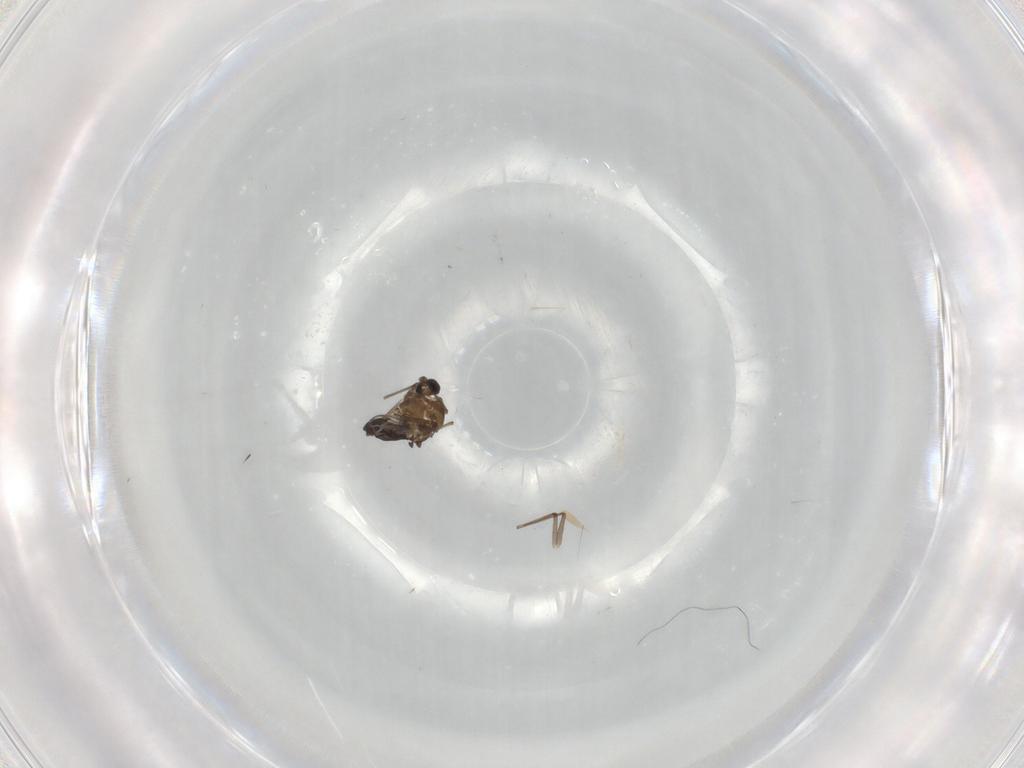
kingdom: Animalia
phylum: Arthropoda
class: Insecta
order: Diptera
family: Chironomidae
